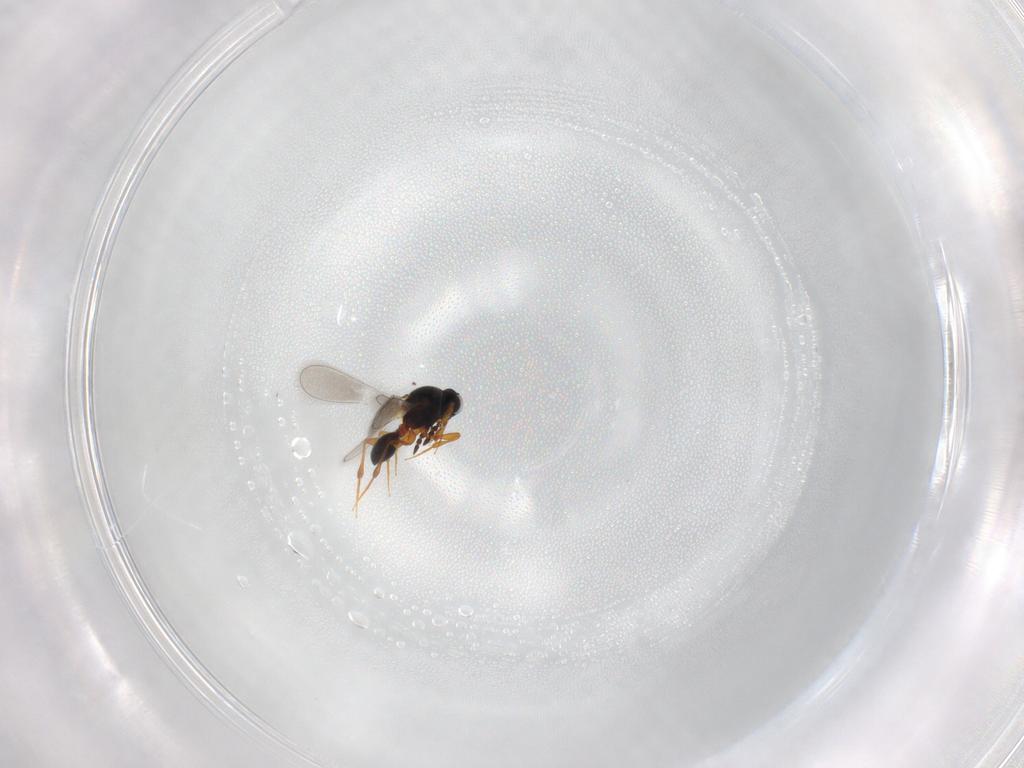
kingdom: Animalia
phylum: Arthropoda
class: Insecta
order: Hymenoptera
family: Platygastridae
